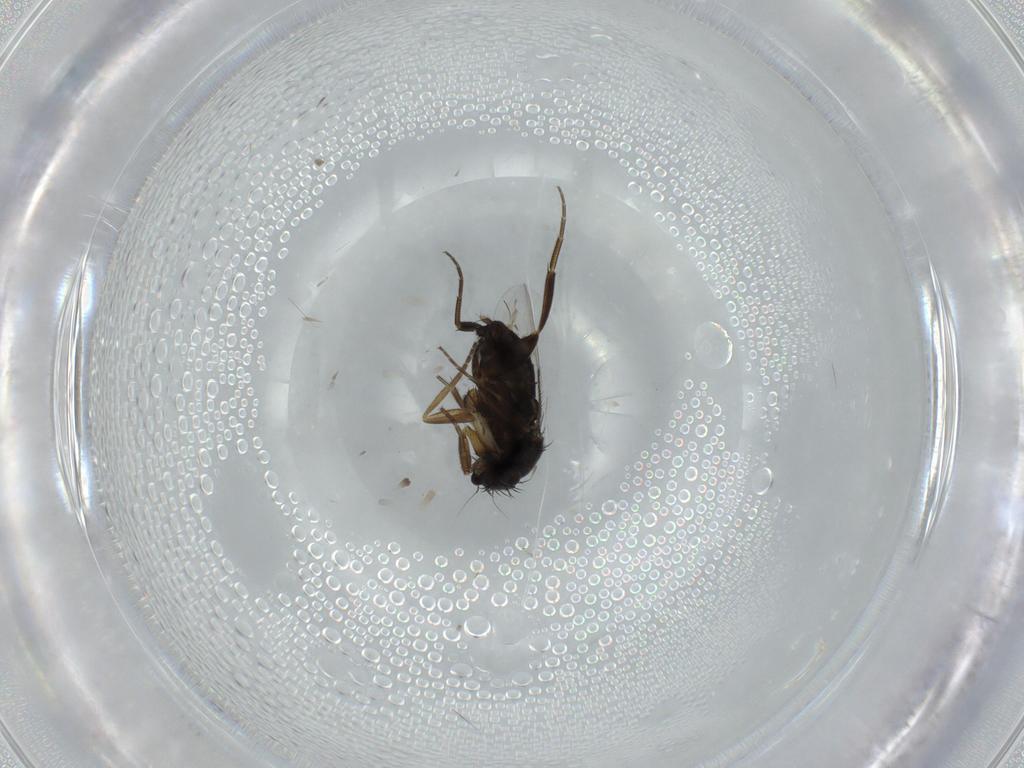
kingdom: Animalia
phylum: Arthropoda
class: Insecta
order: Diptera
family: Phoridae
